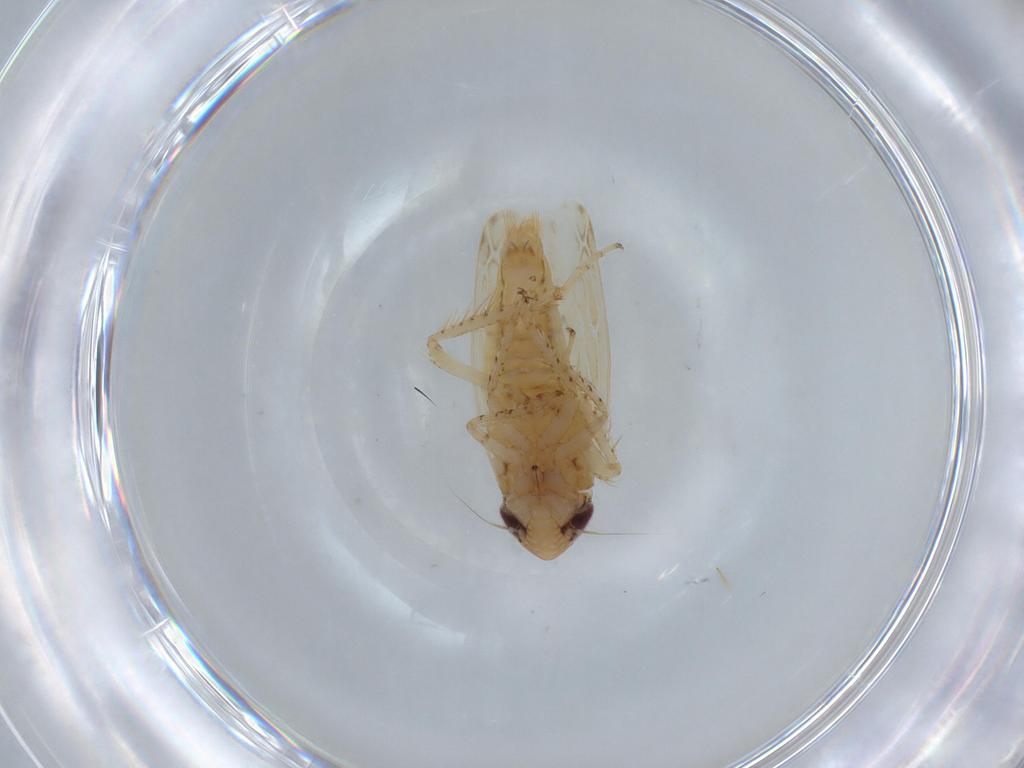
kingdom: Animalia
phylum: Arthropoda
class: Insecta
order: Hemiptera
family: Cicadellidae
